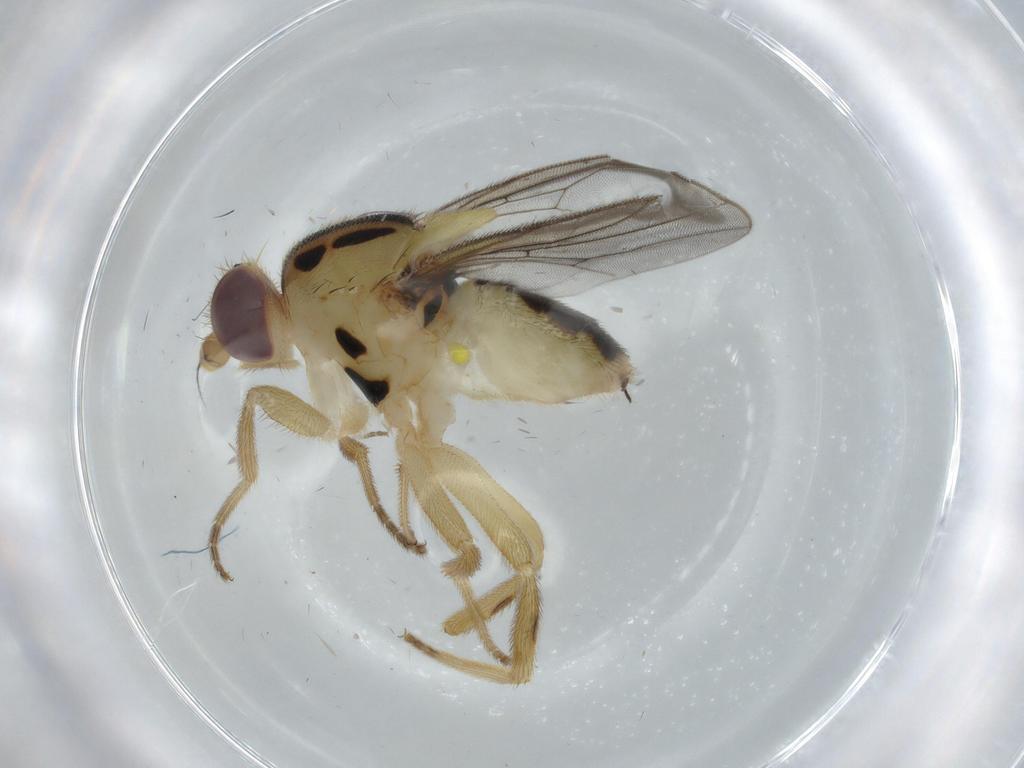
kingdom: Animalia
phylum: Arthropoda
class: Insecta
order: Diptera
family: Chloropidae
